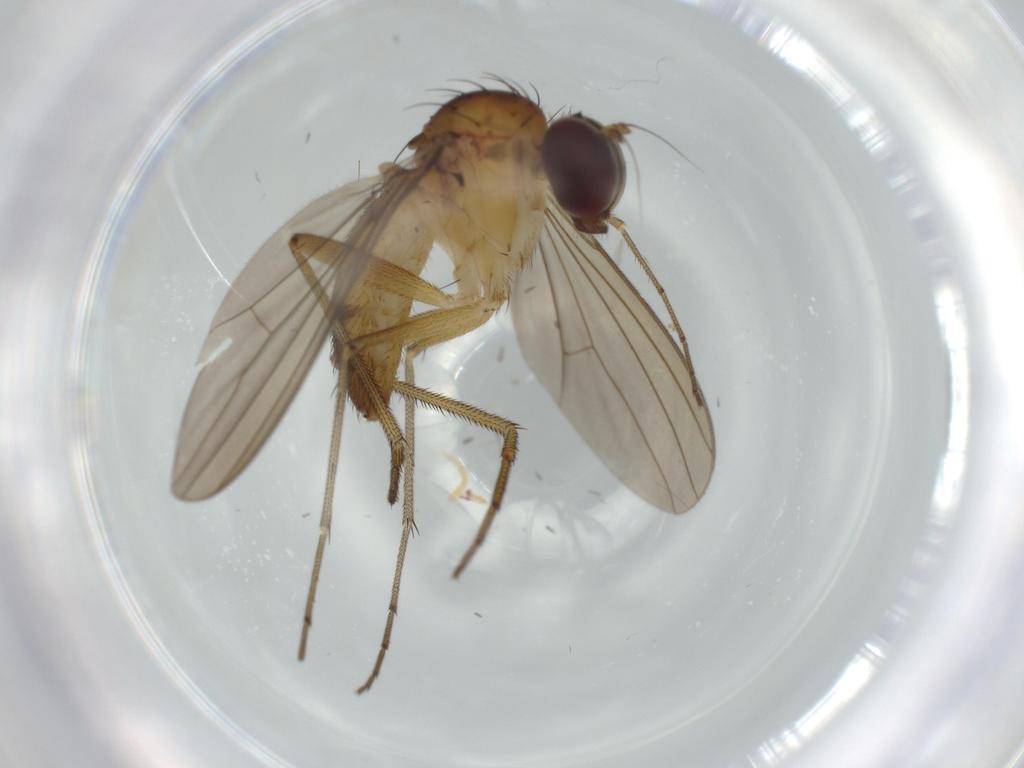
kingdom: Animalia
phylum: Arthropoda
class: Insecta
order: Diptera
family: Dolichopodidae
